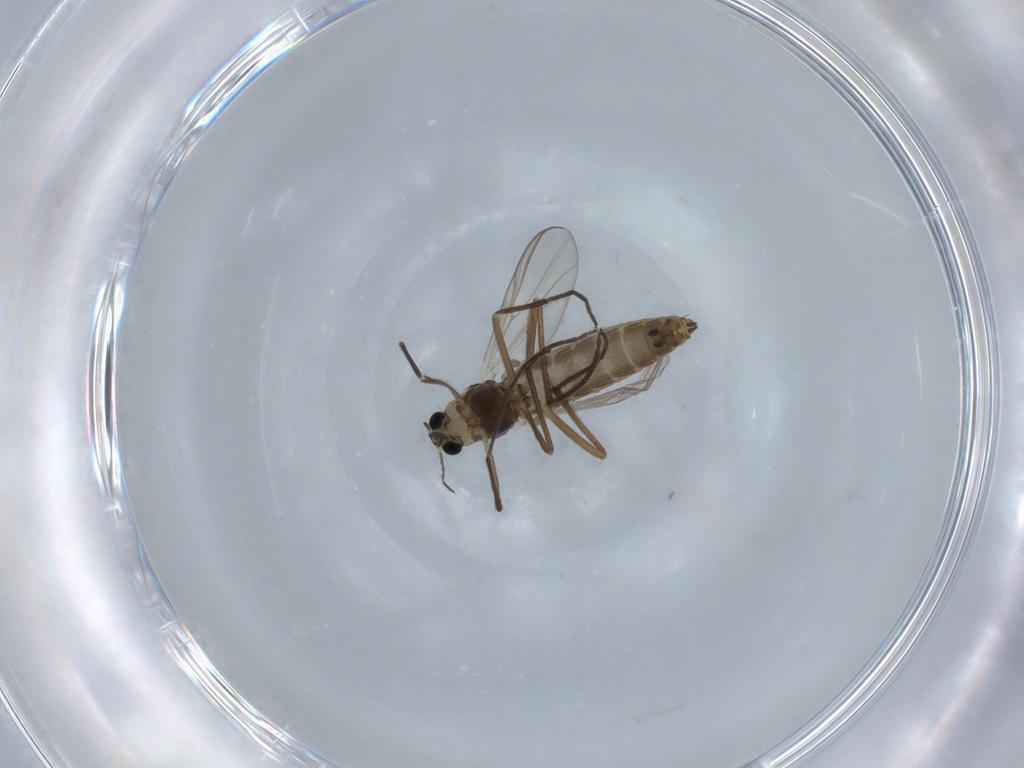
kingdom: Animalia
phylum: Arthropoda
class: Insecta
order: Diptera
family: Chironomidae
